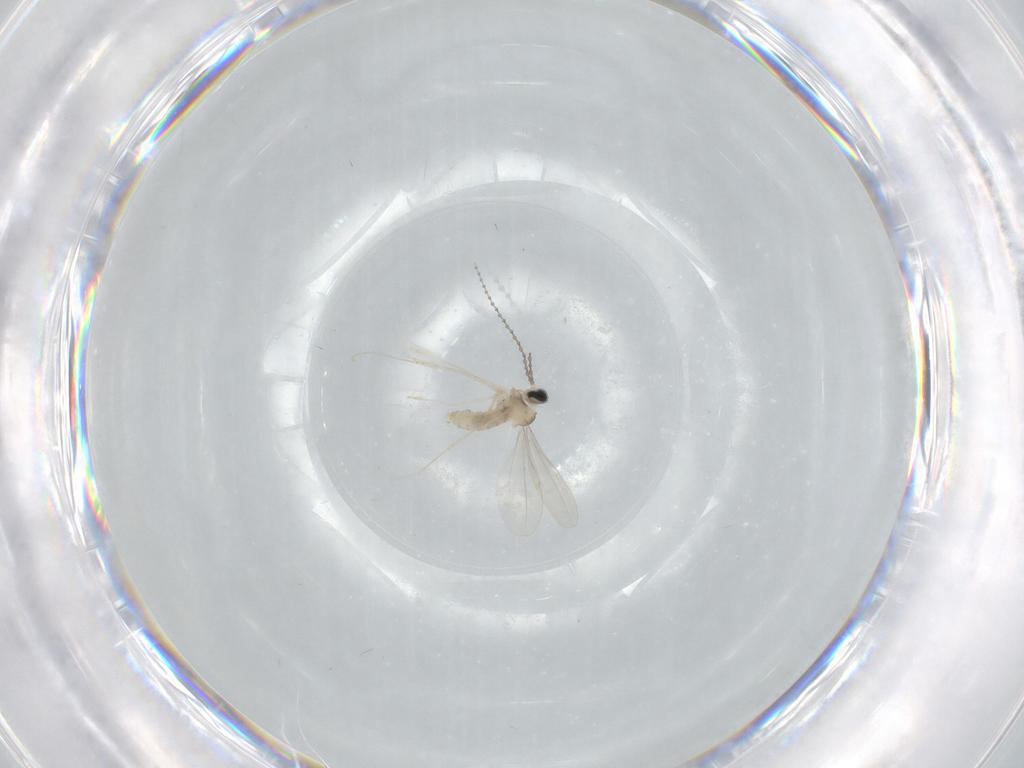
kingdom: Animalia
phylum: Arthropoda
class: Insecta
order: Diptera
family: Cecidomyiidae
